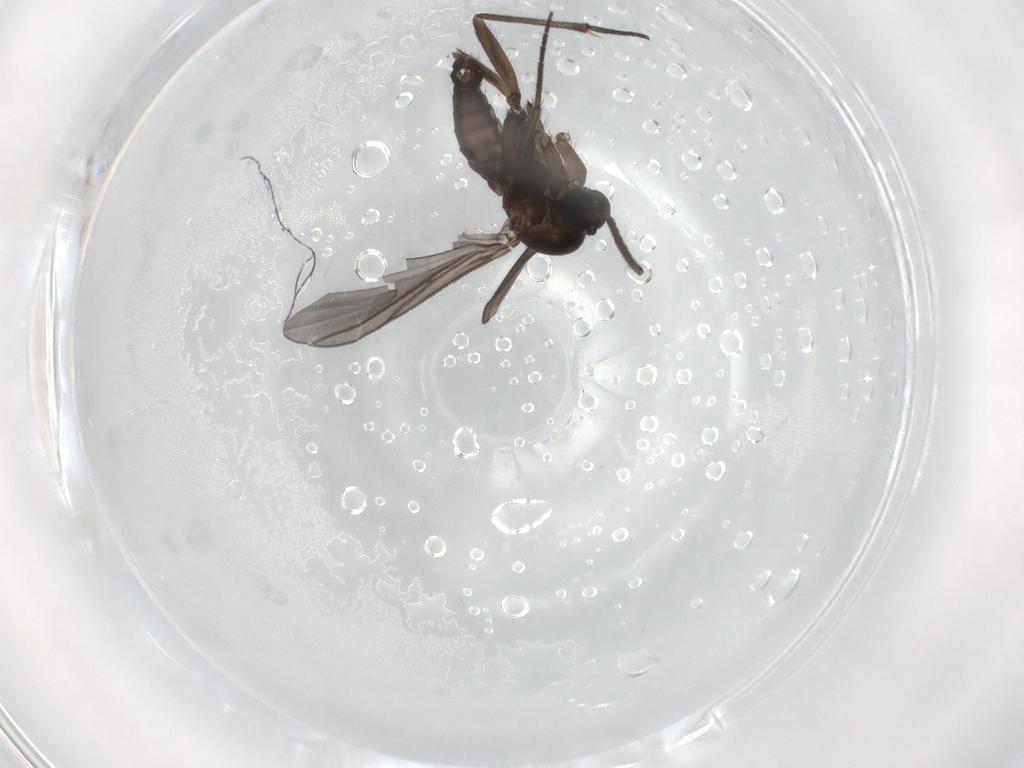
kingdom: Animalia
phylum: Arthropoda
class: Insecta
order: Diptera
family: Sciaridae
